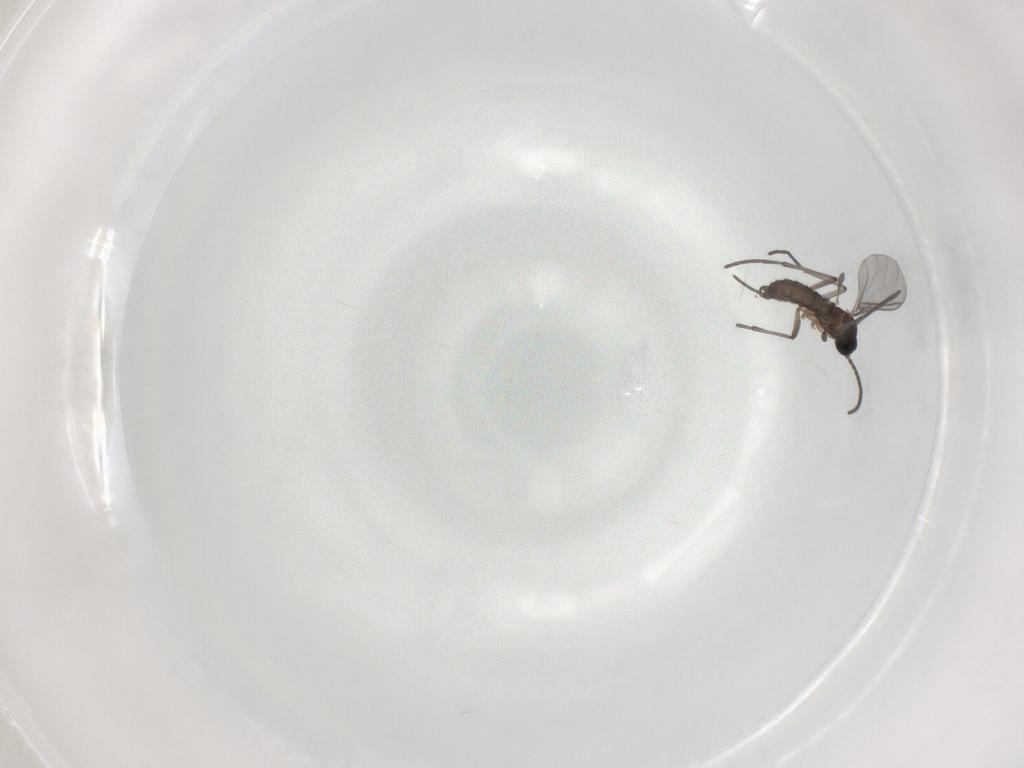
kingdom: Animalia
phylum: Arthropoda
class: Insecta
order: Diptera
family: Sciaridae
